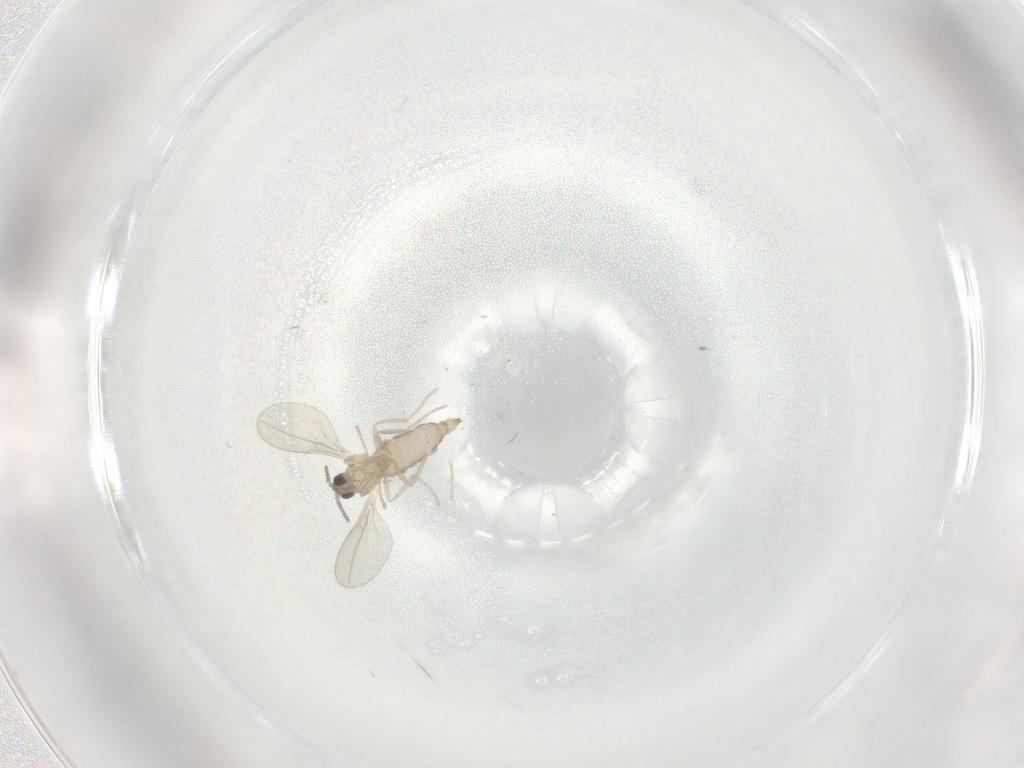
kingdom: Animalia
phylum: Arthropoda
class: Insecta
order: Diptera
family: Cecidomyiidae
